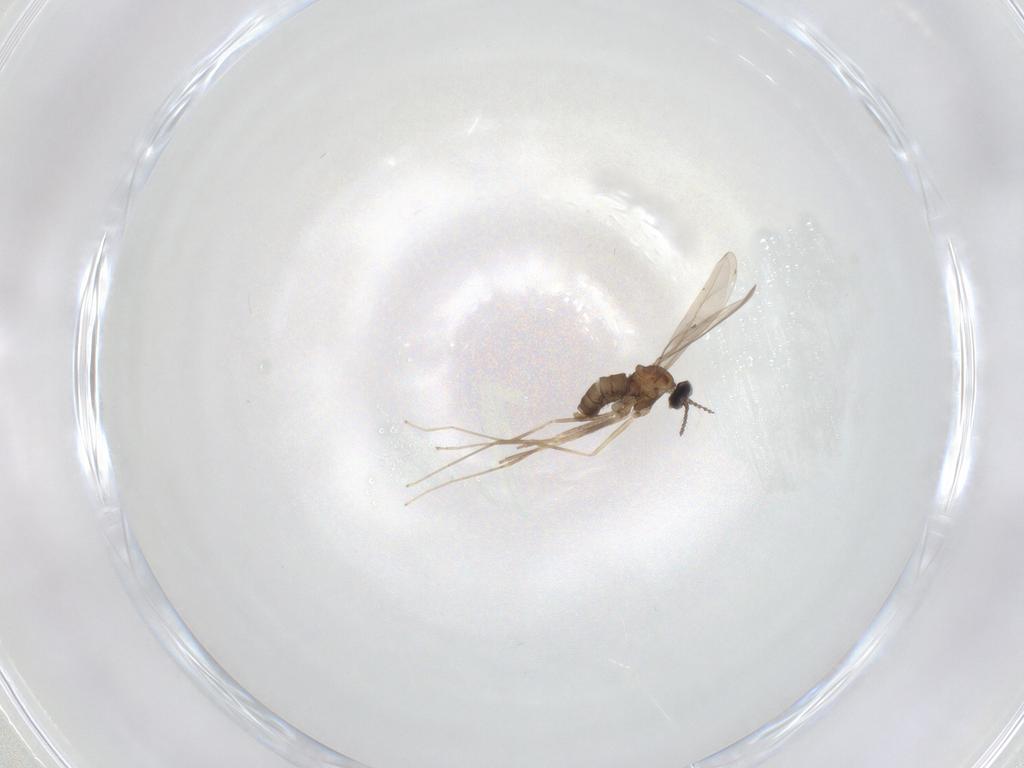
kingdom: Animalia
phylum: Arthropoda
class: Insecta
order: Diptera
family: Cecidomyiidae
